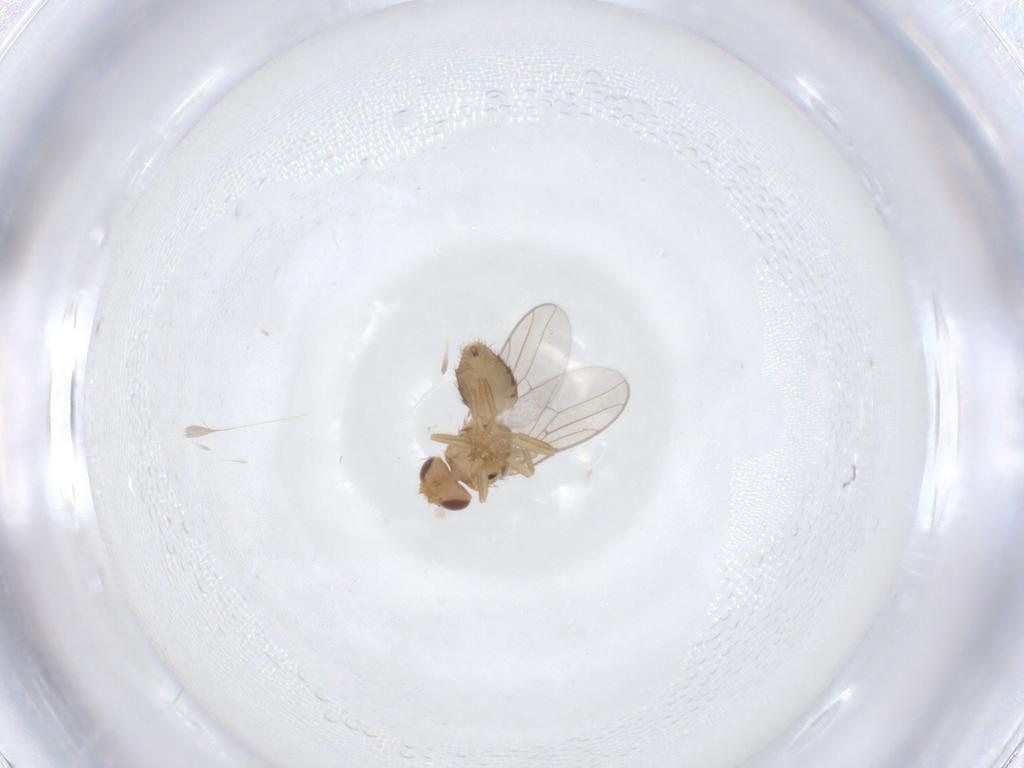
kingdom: Animalia
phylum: Arthropoda
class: Insecta
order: Diptera
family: Chloropidae
